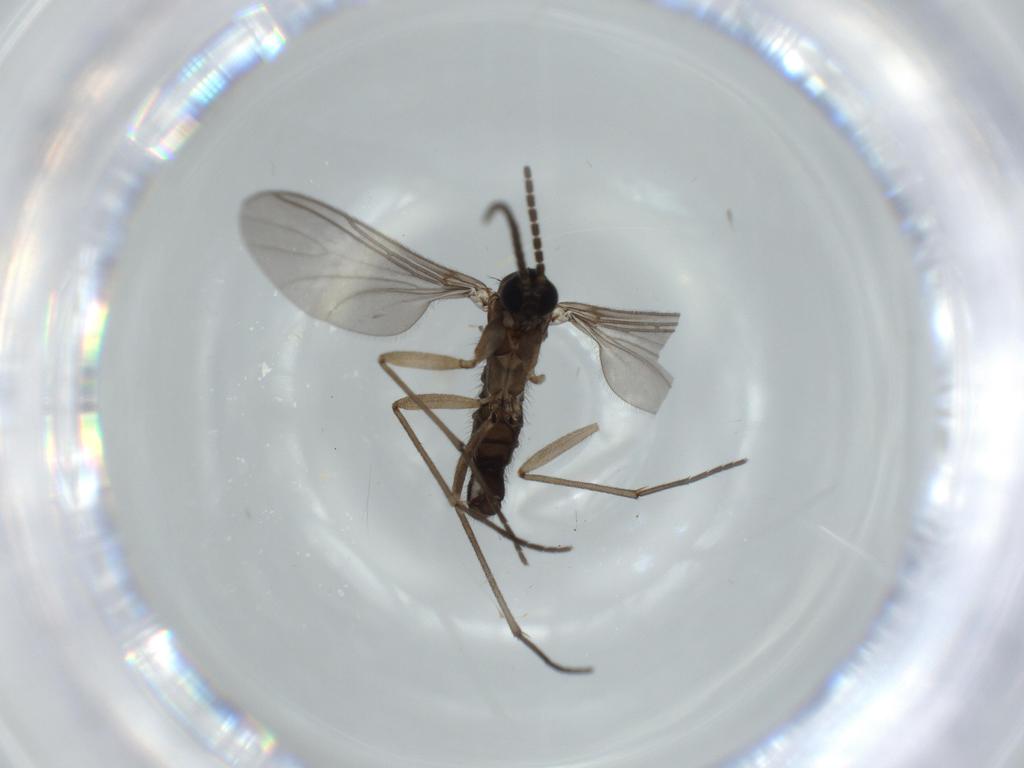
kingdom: Animalia
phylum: Arthropoda
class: Insecta
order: Diptera
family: Sciaridae
